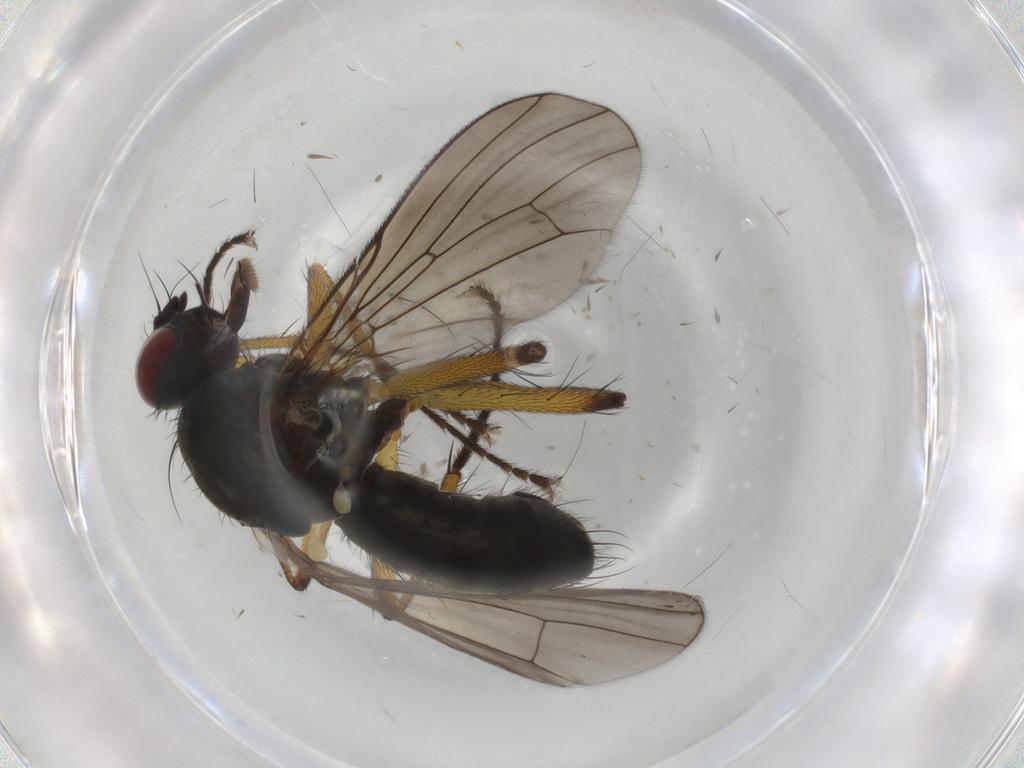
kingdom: Animalia
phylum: Arthropoda
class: Insecta
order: Diptera
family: Muscidae
